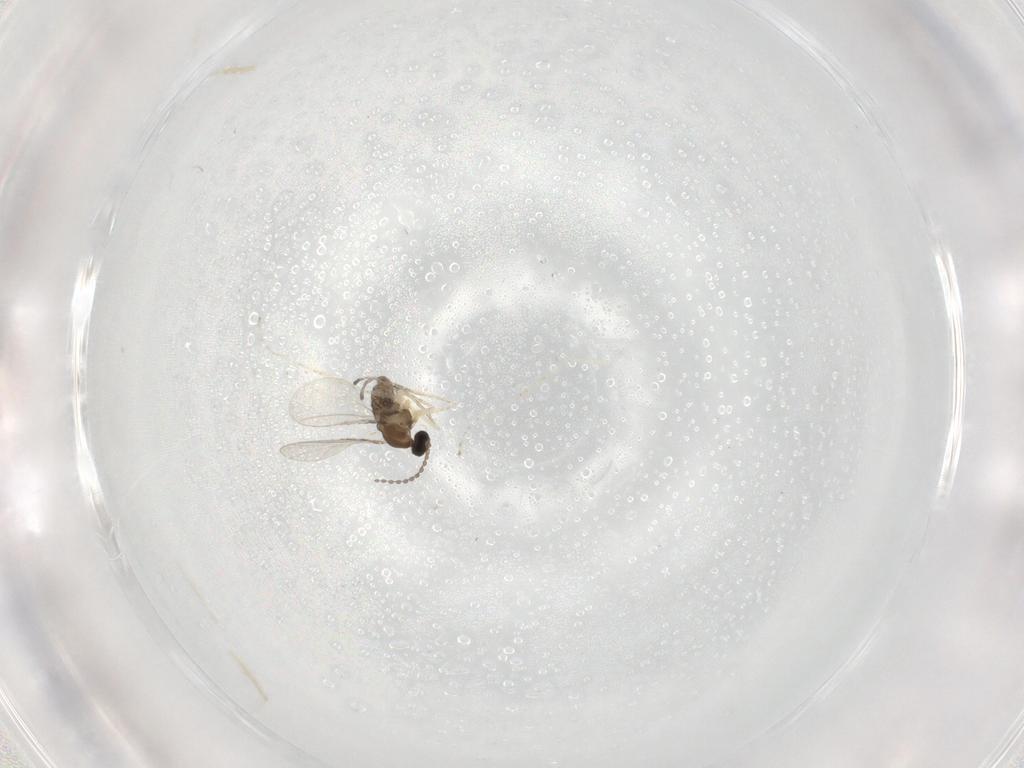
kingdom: Animalia
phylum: Arthropoda
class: Insecta
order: Diptera
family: Cecidomyiidae
